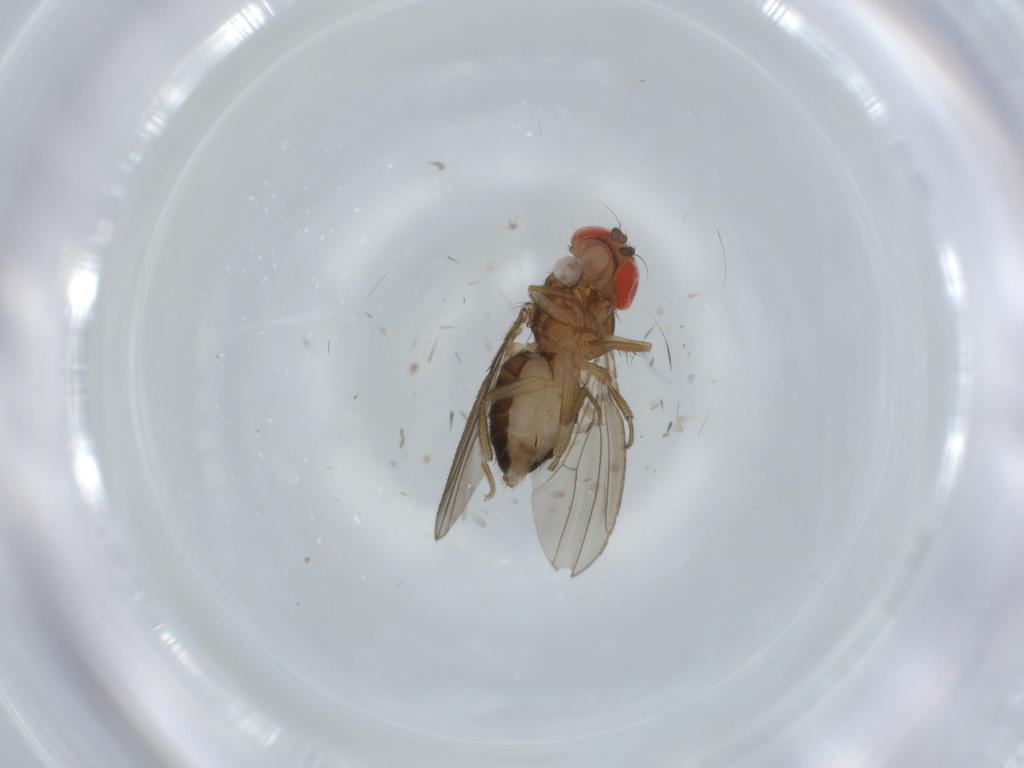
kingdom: Animalia
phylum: Arthropoda
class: Insecta
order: Diptera
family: Drosophilidae
